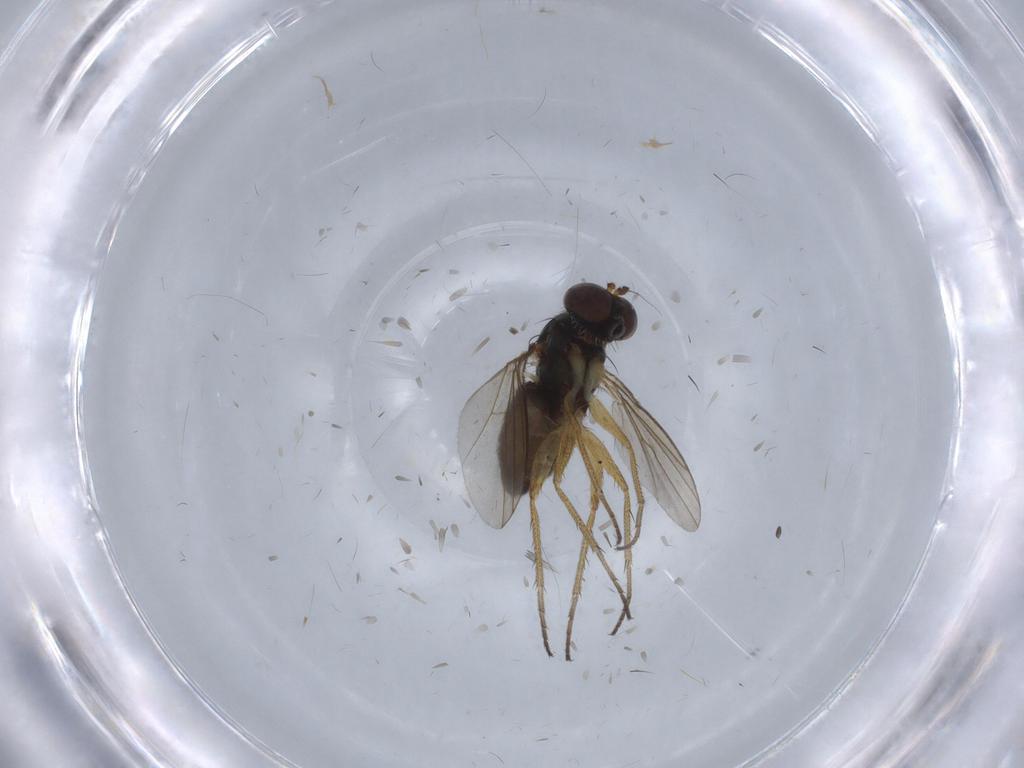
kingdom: Animalia
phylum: Arthropoda
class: Insecta
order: Diptera
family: Dolichopodidae
